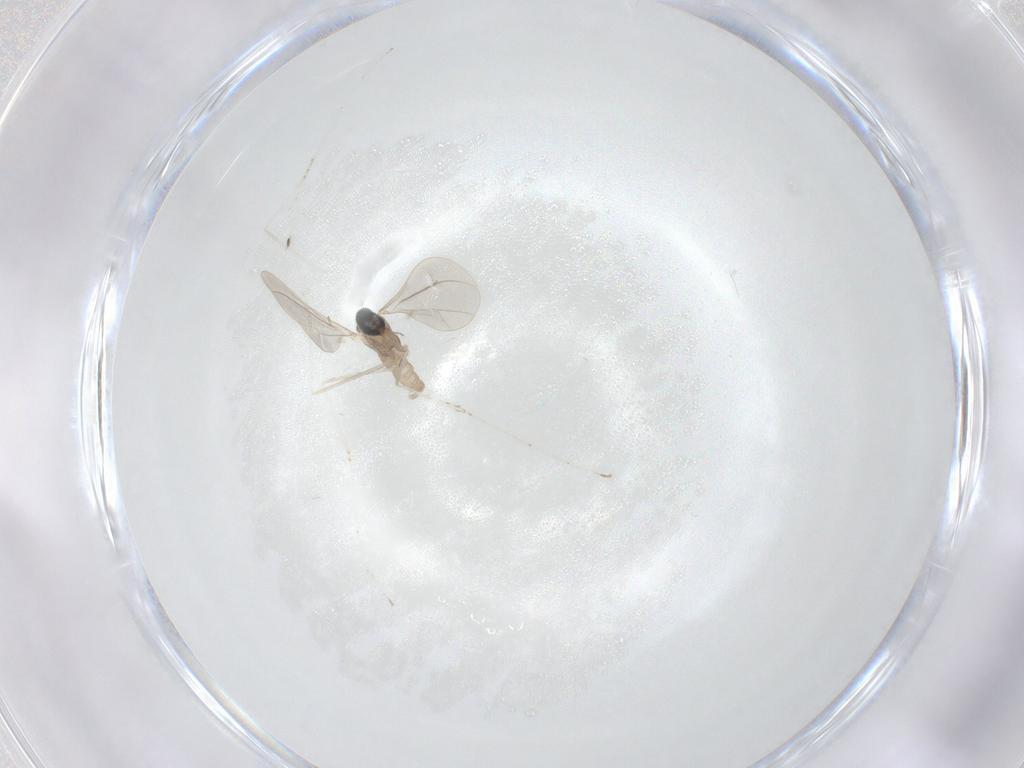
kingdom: Animalia
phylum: Arthropoda
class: Insecta
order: Diptera
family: Cecidomyiidae
